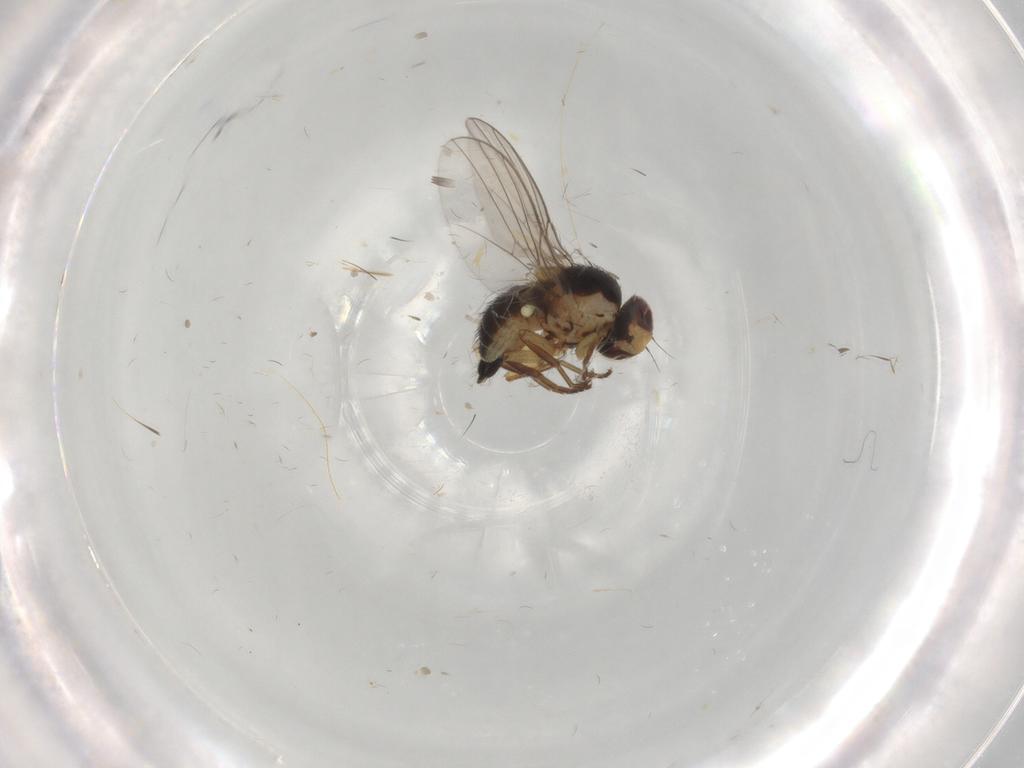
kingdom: Animalia
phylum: Arthropoda
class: Insecta
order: Diptera
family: Agromyzidae
